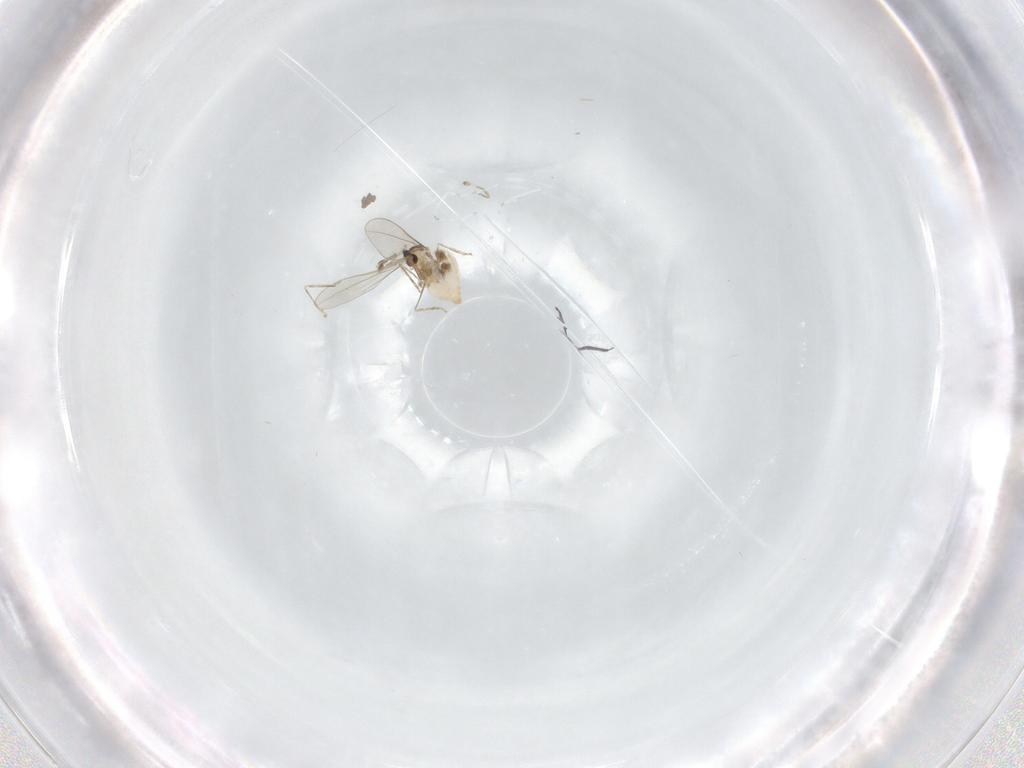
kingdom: Animalia
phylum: Arthropoda
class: Insecta
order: Diptera
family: Cecidomyiidae
